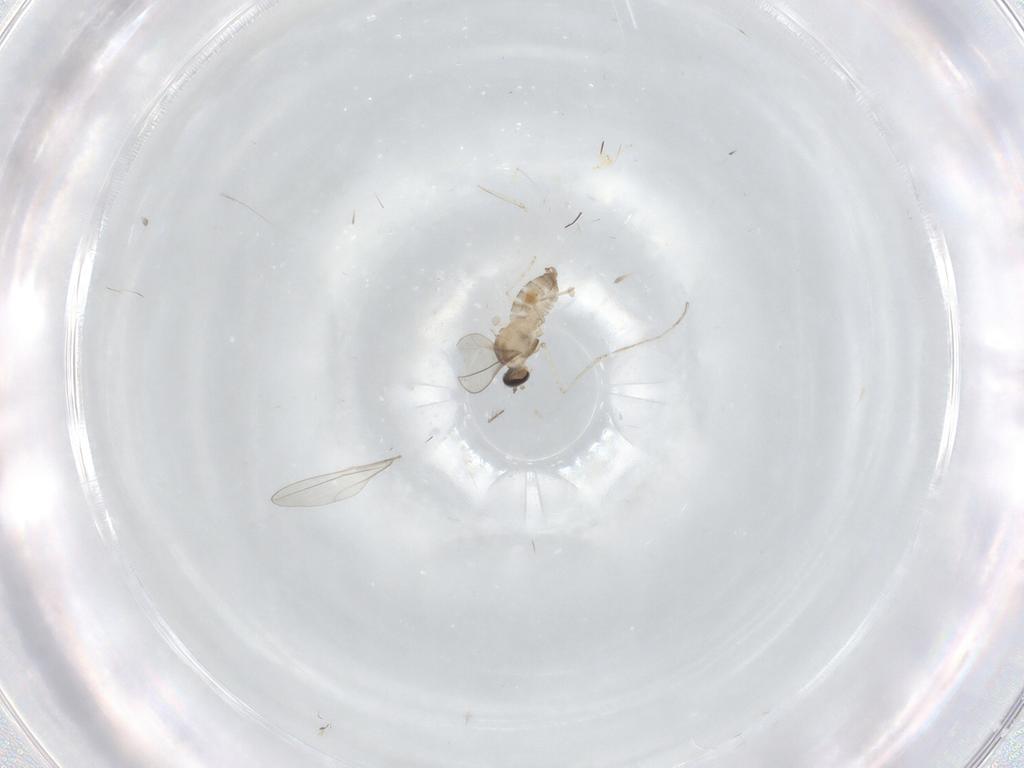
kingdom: Animalia
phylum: Arthropoda
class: Insecta
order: Diptera
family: Cecidomyiidae
